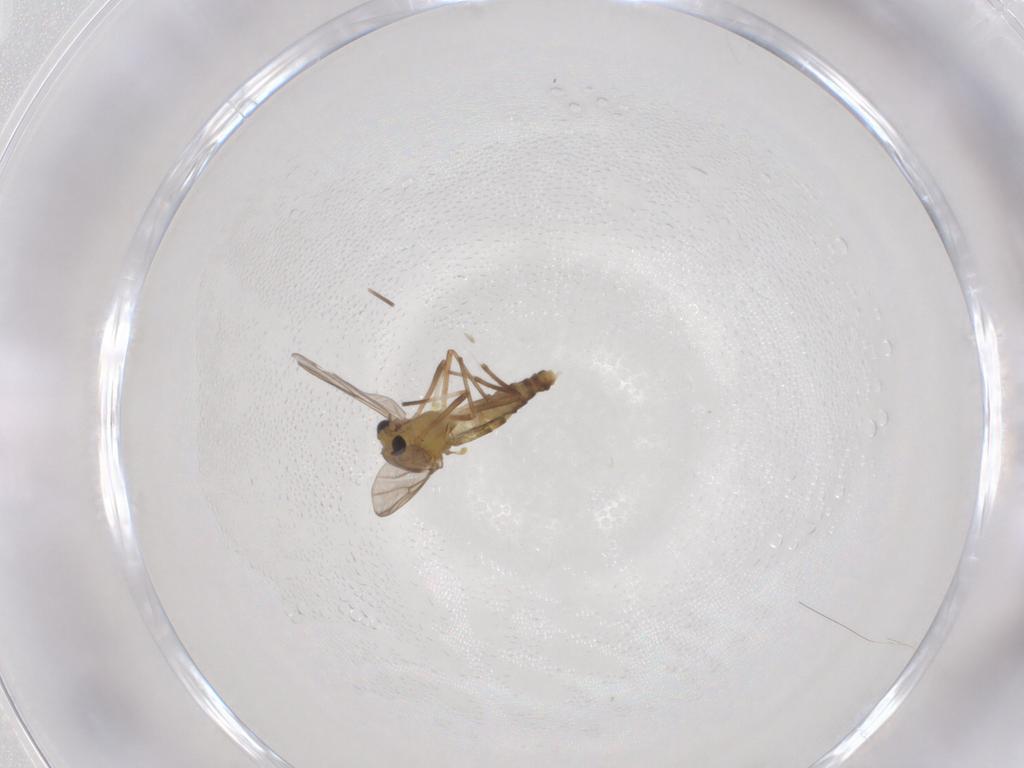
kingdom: Animalia
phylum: Arthropoda
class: Insecta
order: Diptera
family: Chironomidae
